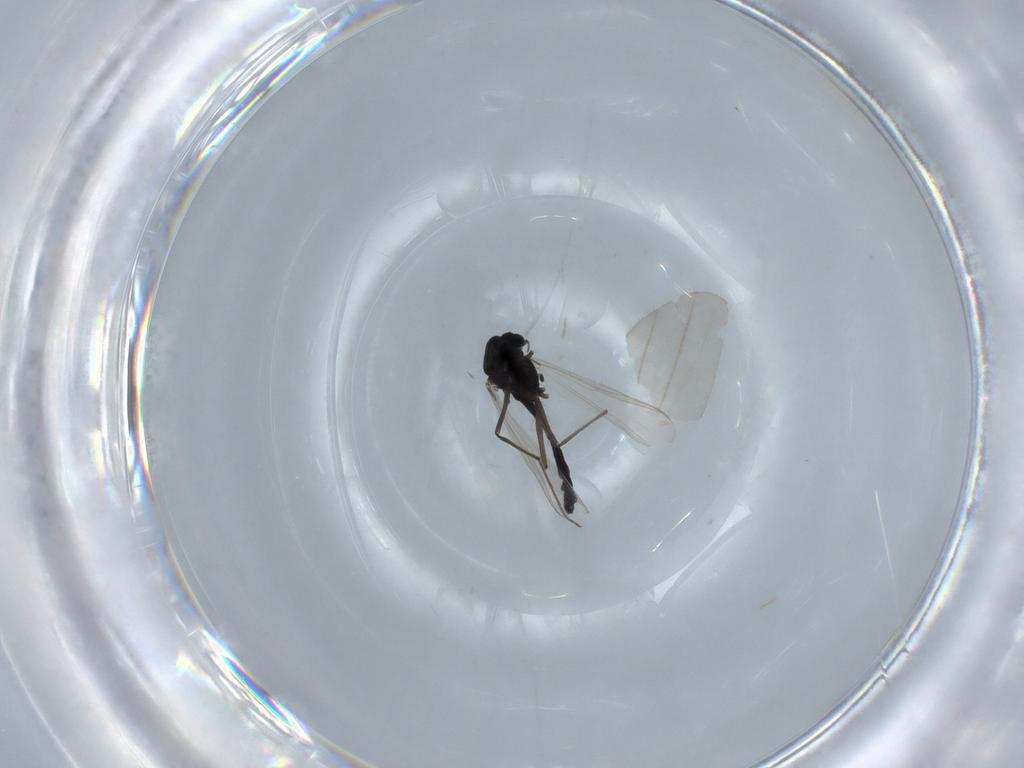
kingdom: Animalia
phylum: Arthropoda
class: Insecta
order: Diptera
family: Chironomidae
